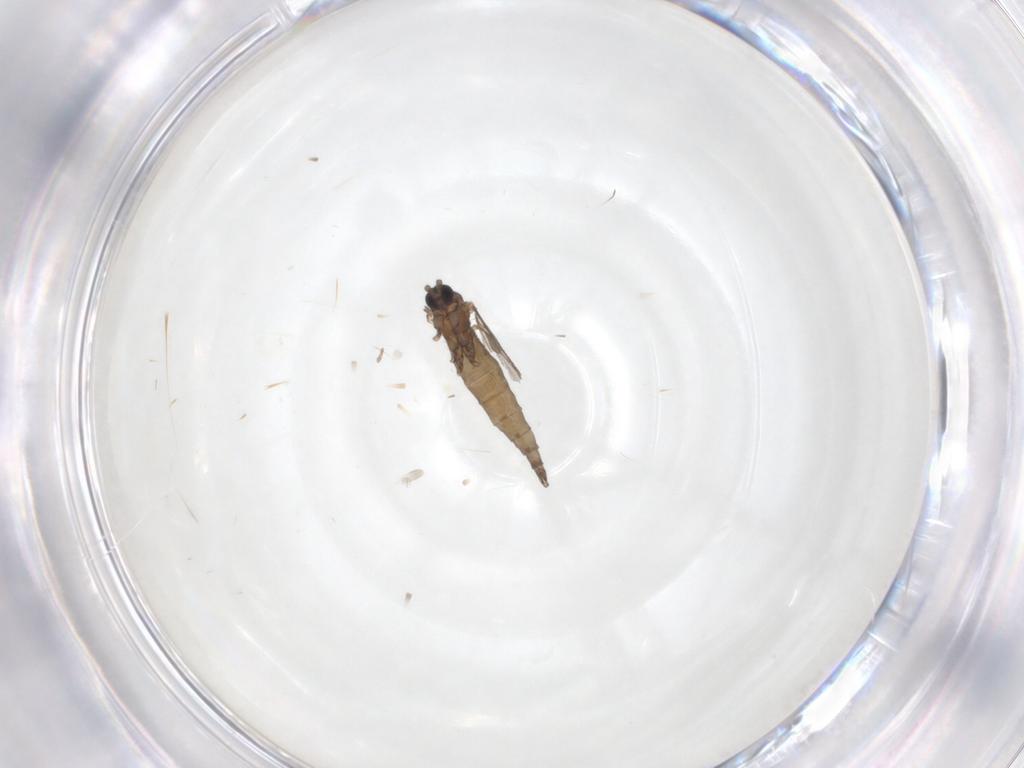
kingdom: Animalia
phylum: Arthropoda
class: Insecta
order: Diptera
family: Sciaridae
